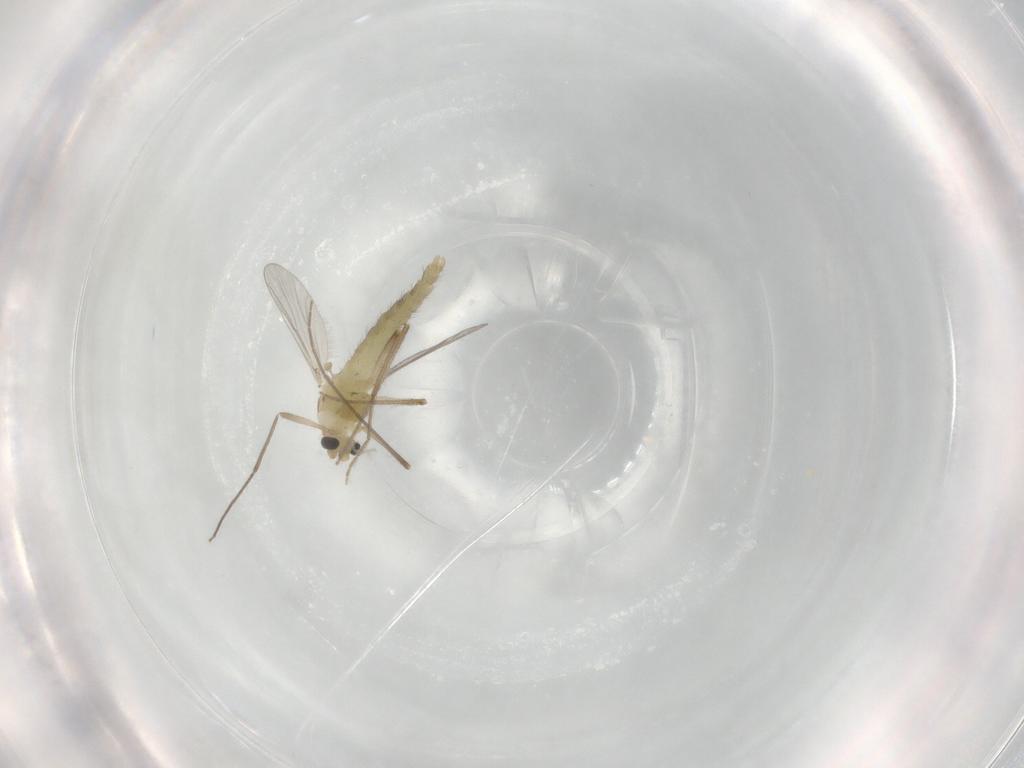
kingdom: Animalia
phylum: Arthropoda
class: Insecta
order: Diptera
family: Chironomidae
